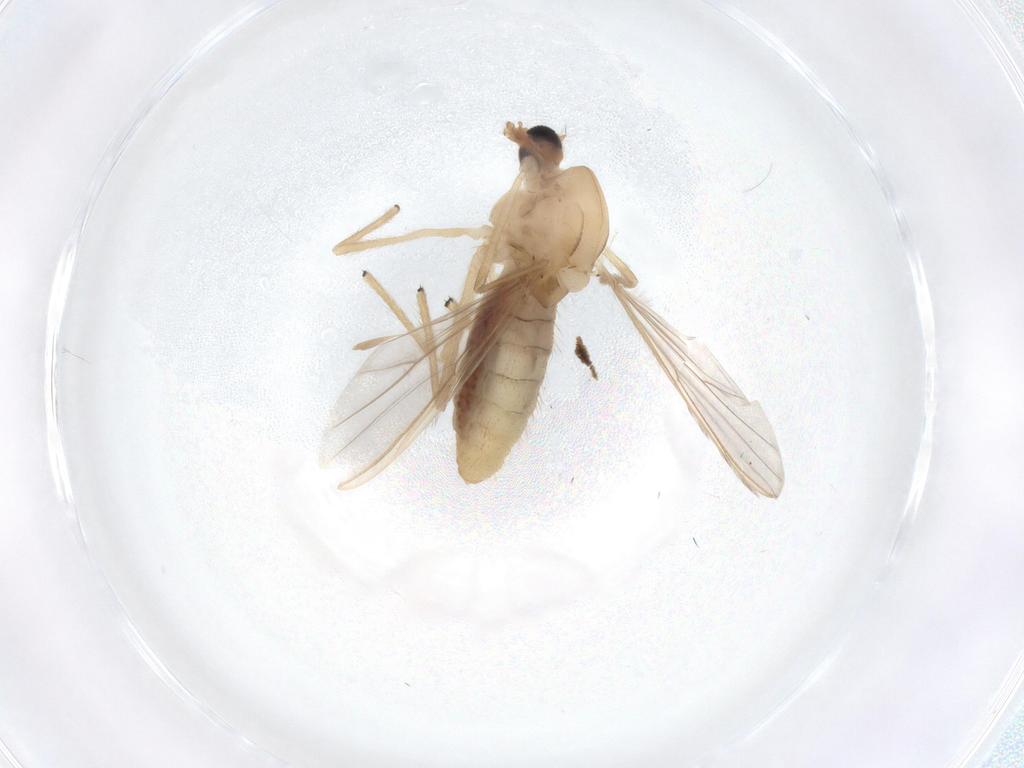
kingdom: Animalia
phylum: Arthropoda
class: Insecta
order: Diptera
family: Chironomidae
